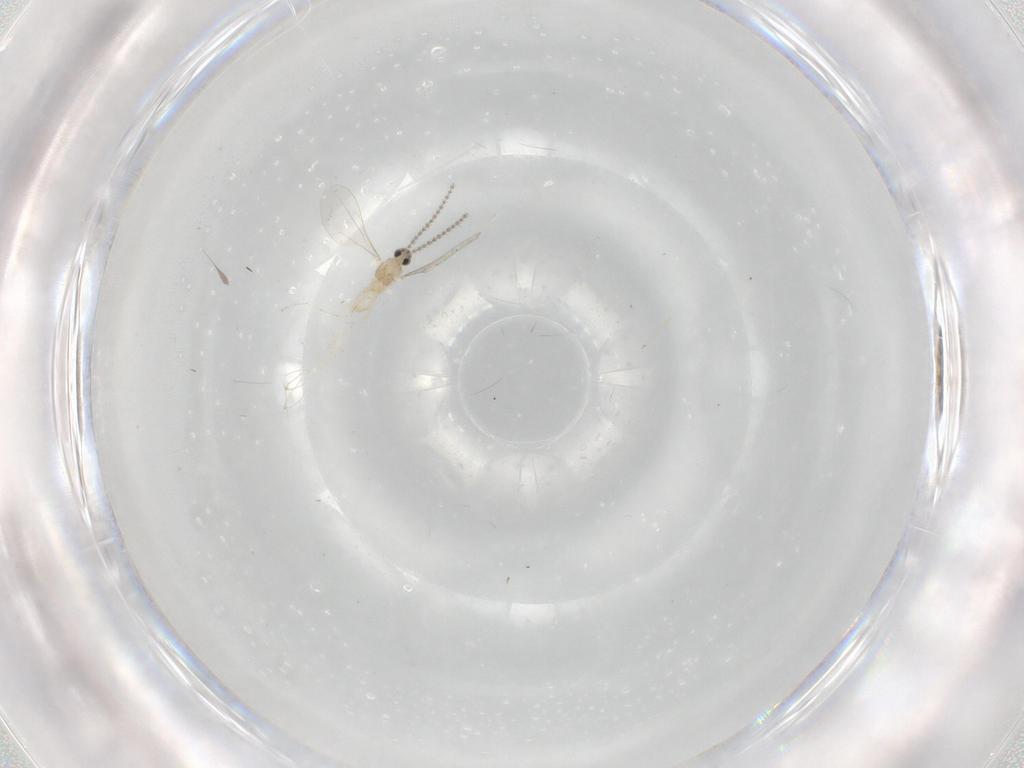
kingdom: Animalia
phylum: Arthropoda
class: Insecta
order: Diptera
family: Cecidomyiidae
